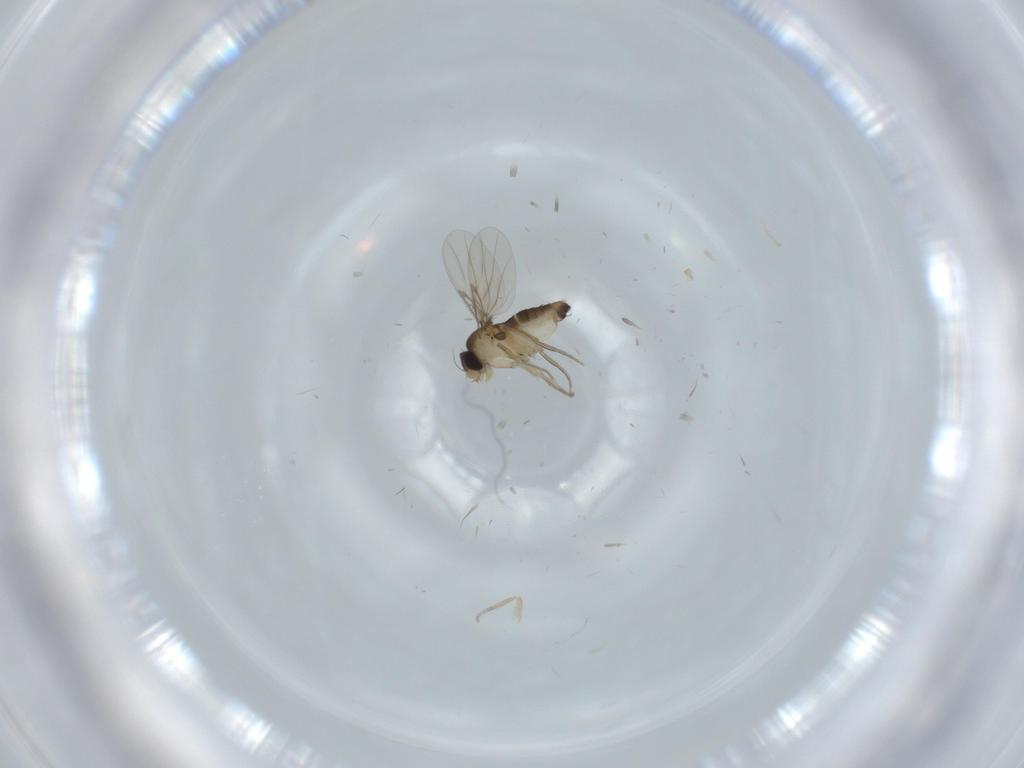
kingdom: Animalia
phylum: Arthropoda
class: Insecta
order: Diptera
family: Phoridae
